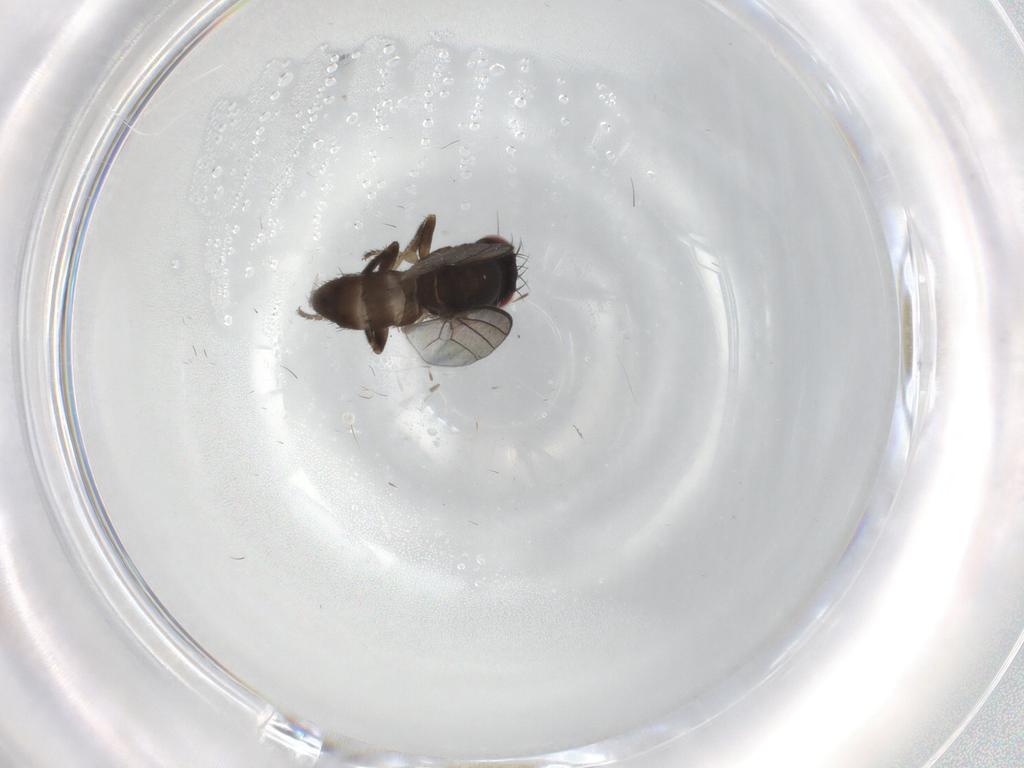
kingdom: Animalia
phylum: Arthropoda
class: Insecta
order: Diptera
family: Milichiidae
